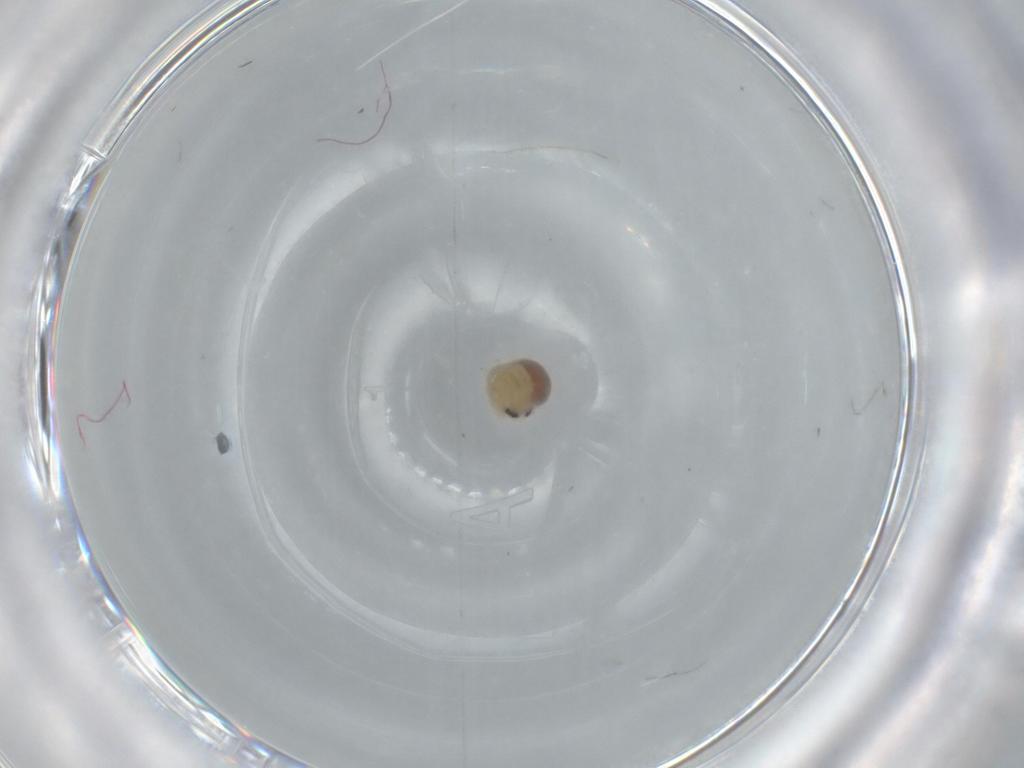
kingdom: Animalia
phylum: Arthropoda
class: Arachnida
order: Araneae
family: Pholcidae
